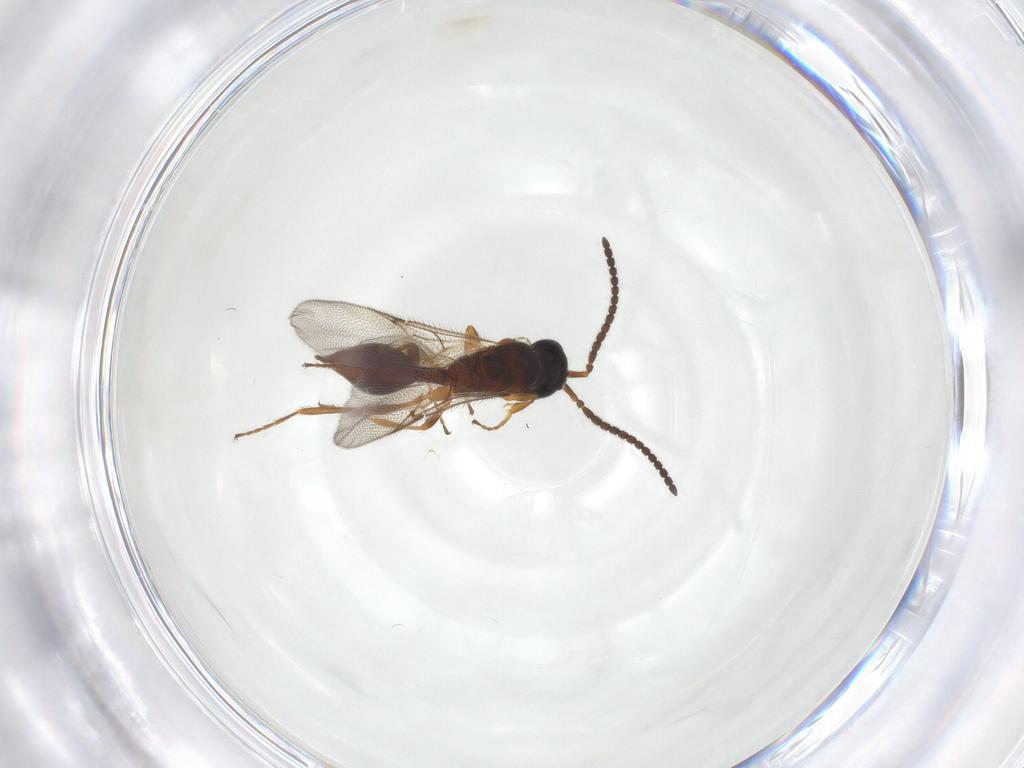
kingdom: Animalia
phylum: Arthropoda
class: Insecta
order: Hymenoptera
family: Diapriidae
